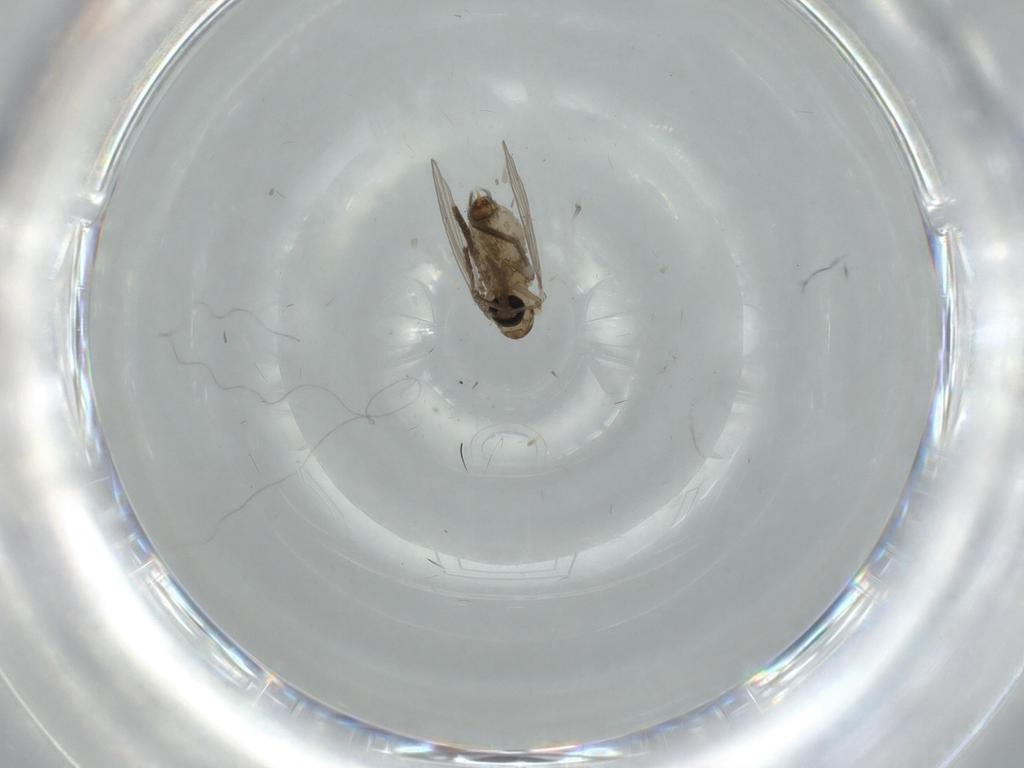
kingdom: Animalia
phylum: Arthropoda
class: Insecta
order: Diptera
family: Psychodidae
